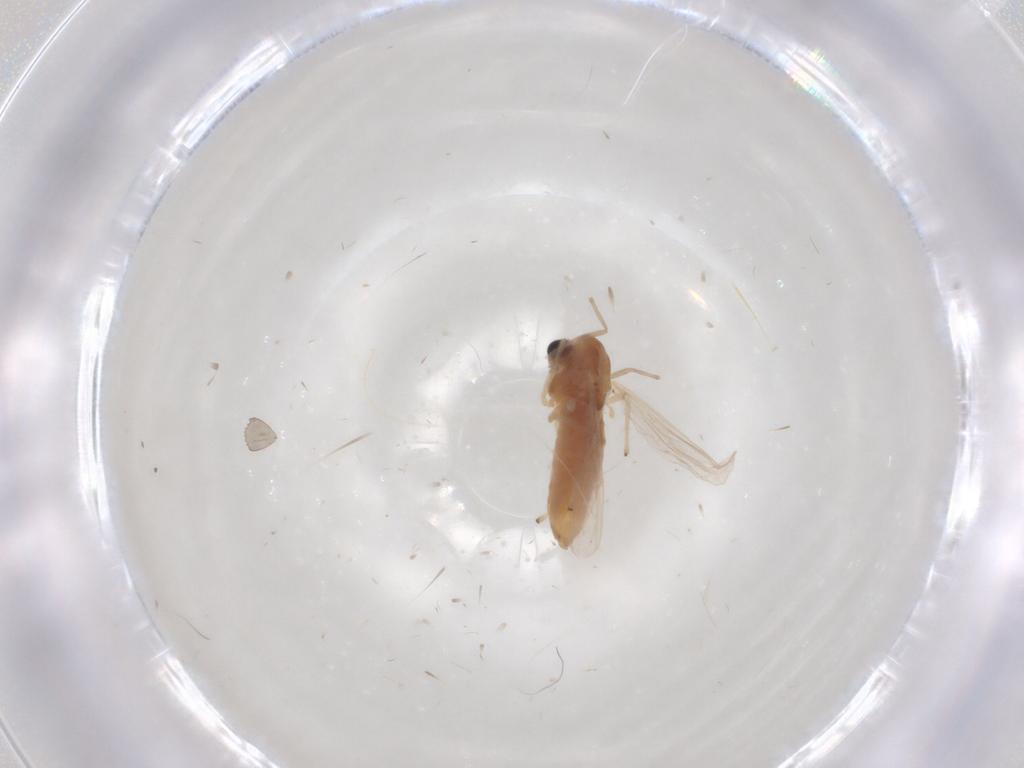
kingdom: Animalia
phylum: Arthropoda
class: Insecta
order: Diptera
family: Chironomidae
